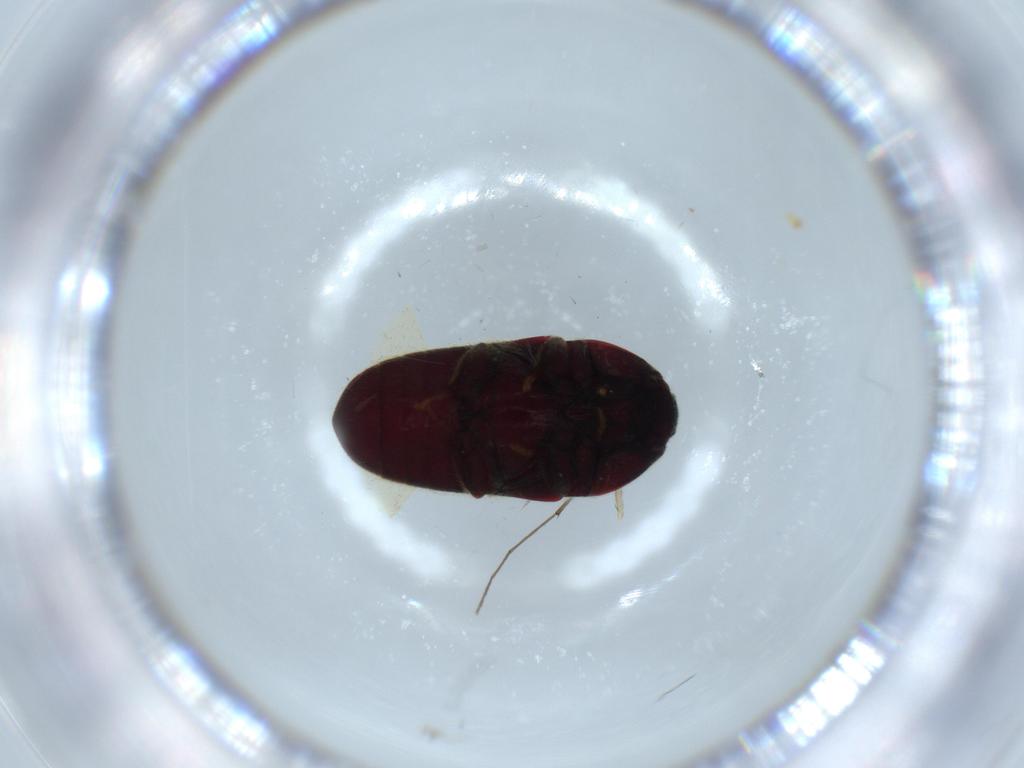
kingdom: Animalia
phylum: Arthropoda
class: Insecta
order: Coleoptera
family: Throscidae
